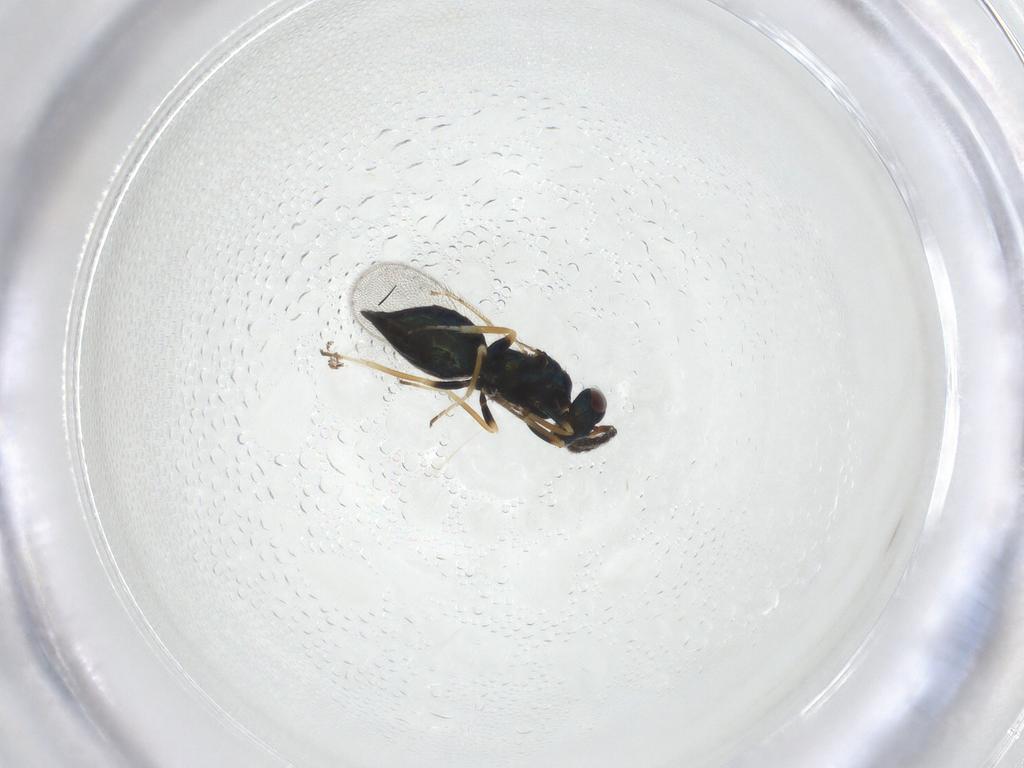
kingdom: Animalia
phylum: Arthropoda
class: Insecta
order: Hymenoptera
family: Eulophidae
